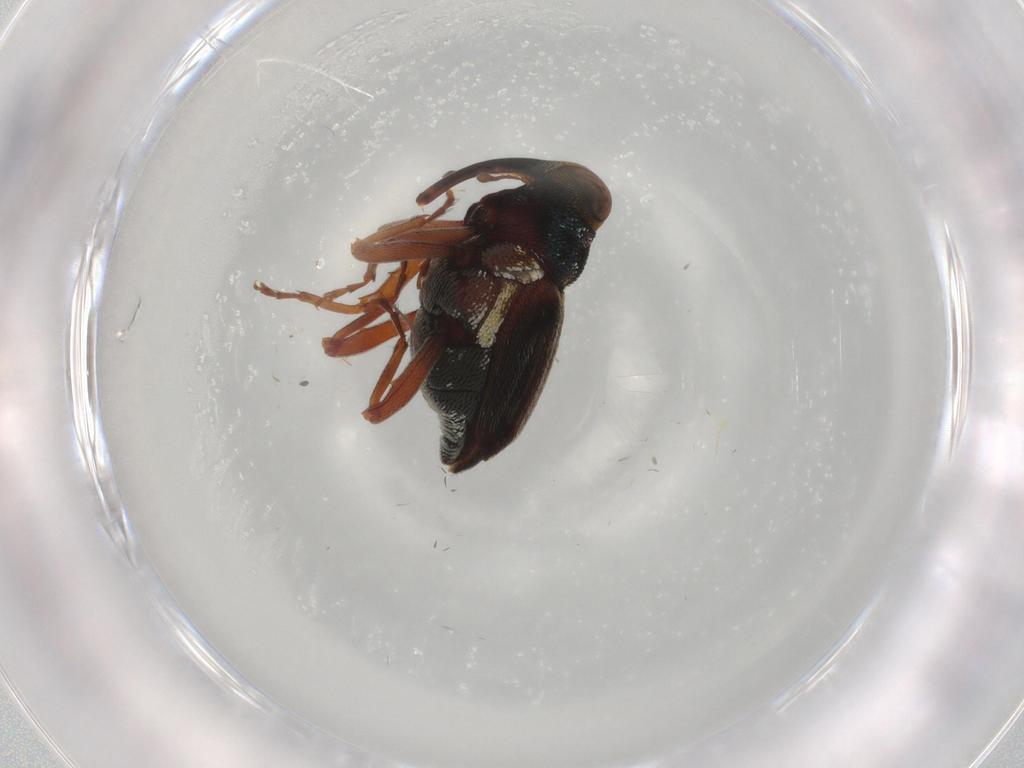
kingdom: Animalia
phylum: Arthropoda
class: Insecta
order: Coleoptera
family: Curculionidae
